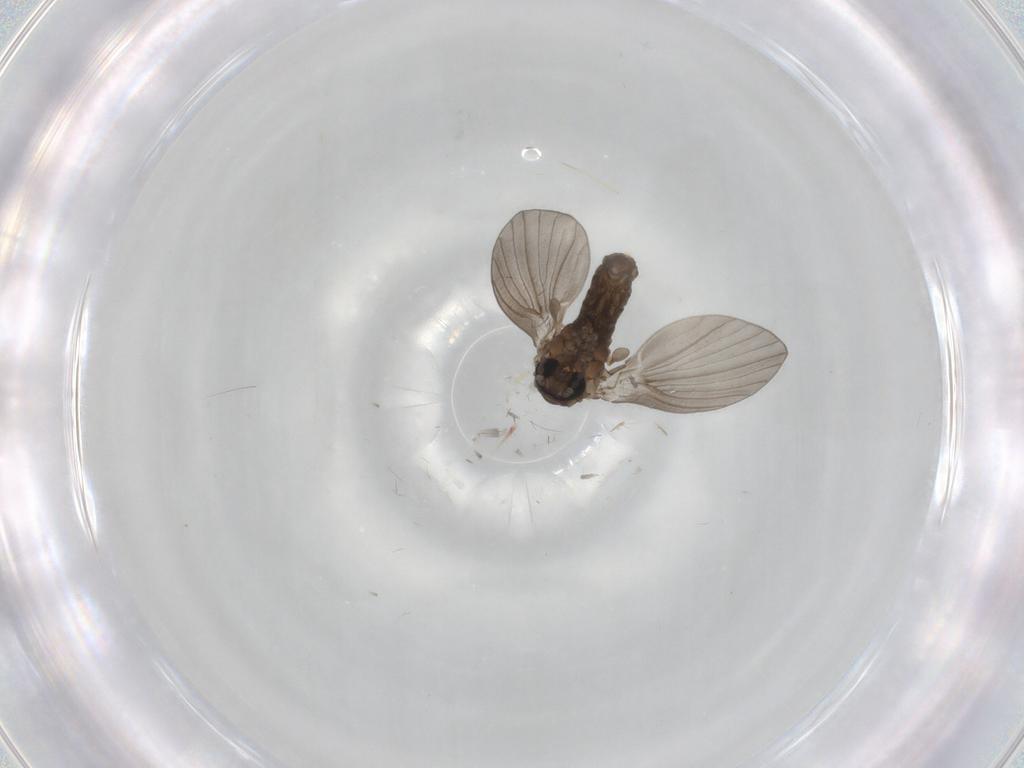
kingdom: Animalia
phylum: Arthropoda
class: Insecta
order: Diptera
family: Psychodidae
